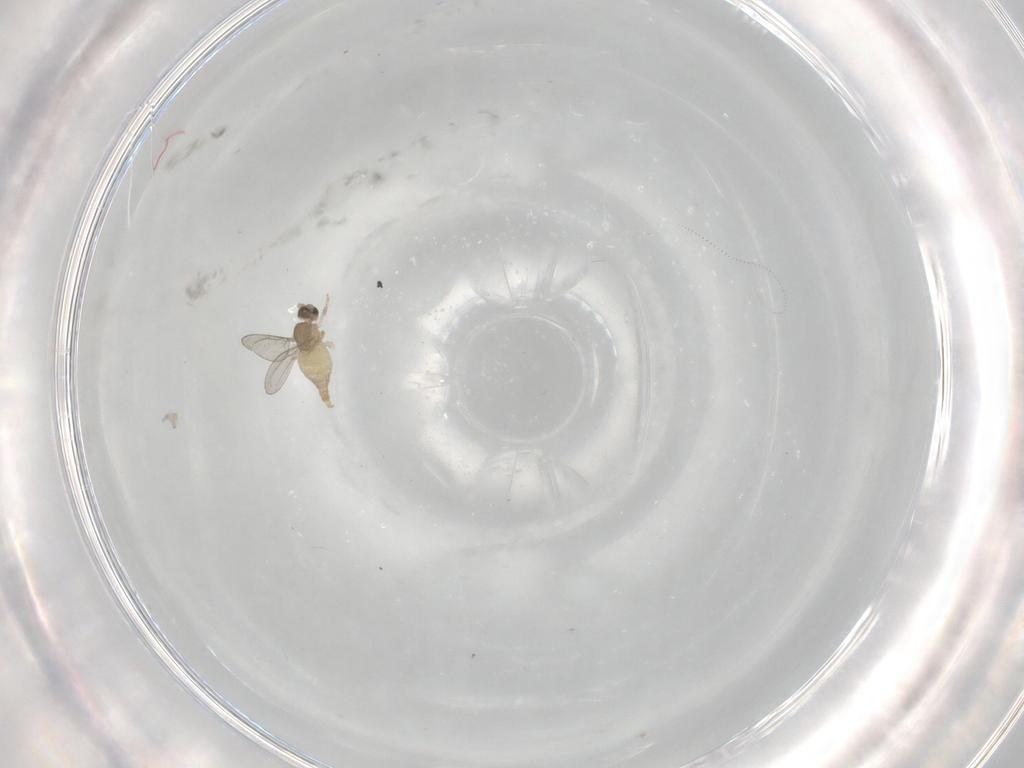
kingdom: Animalia
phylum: Arthropoda
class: Insecta
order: Diptera
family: Cecidomyiidae
